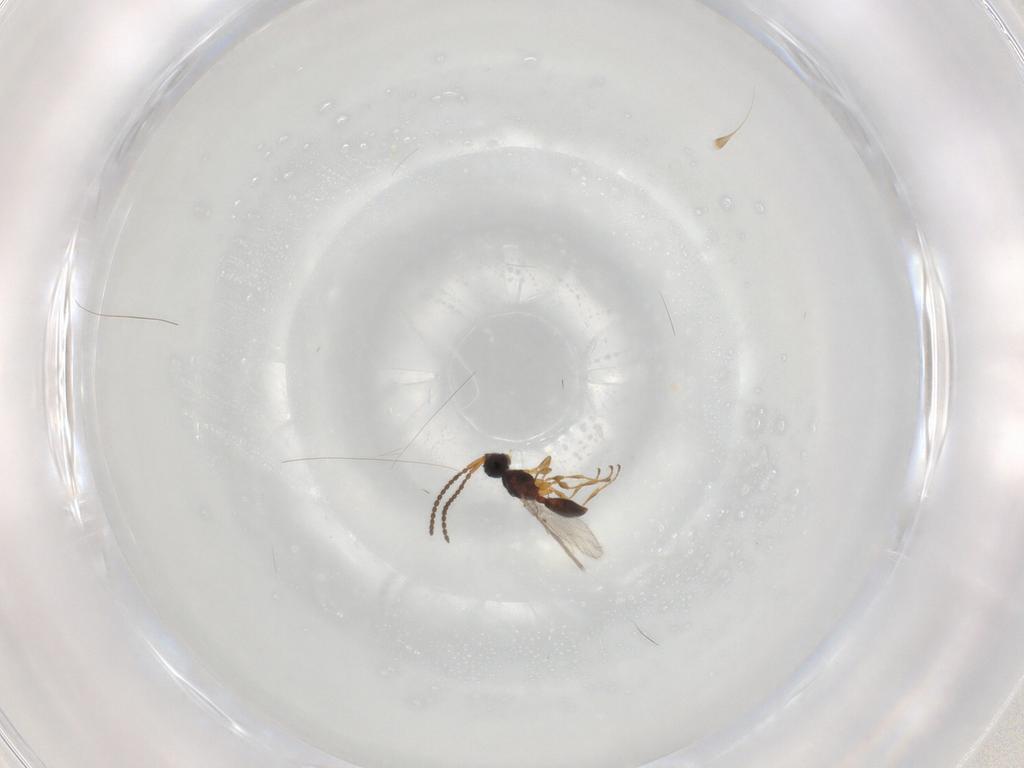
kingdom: Animalia
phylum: Arthropoda
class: Insecta
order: Hymenoptera
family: Diapriidae
